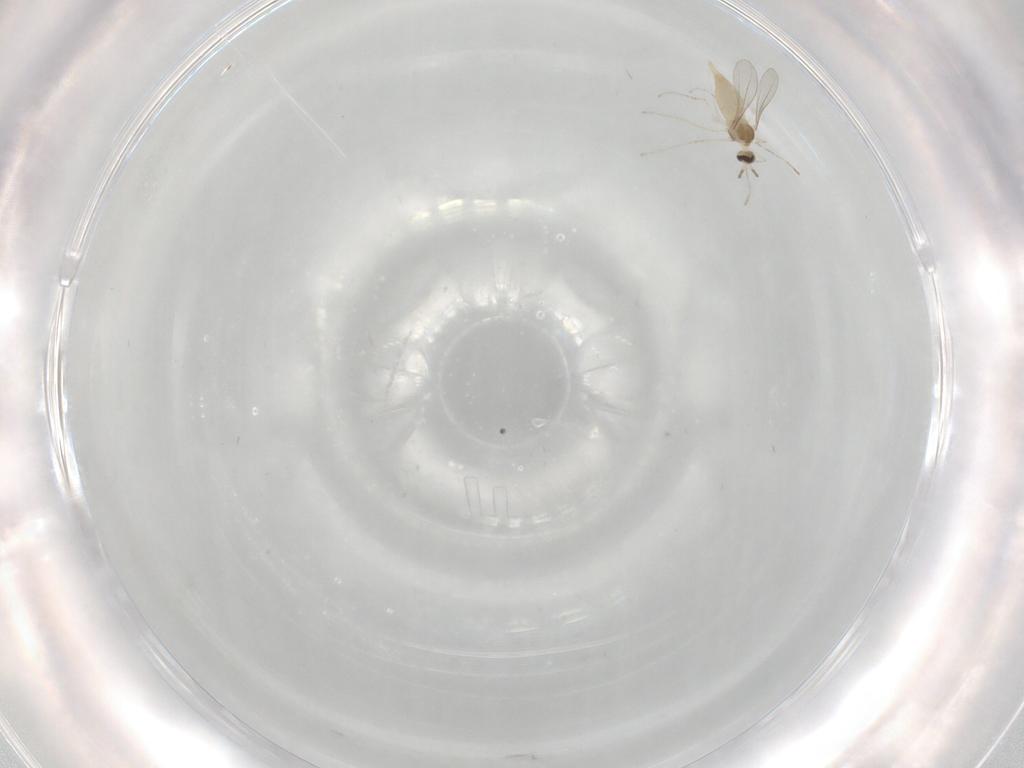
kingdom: Animalia
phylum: Arthropoda
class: Insecta
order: Diptera
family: Cecidomyiidae
